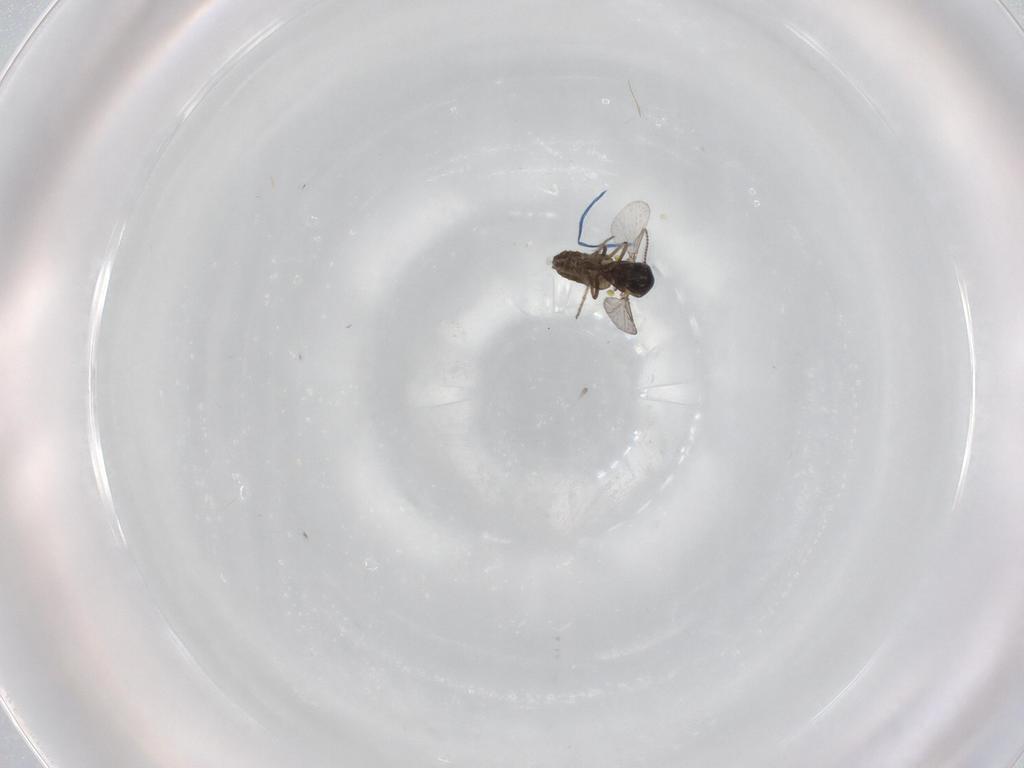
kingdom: Animalia
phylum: Arthropoda
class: Insecta
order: Diptera
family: Ceratopogonidae
